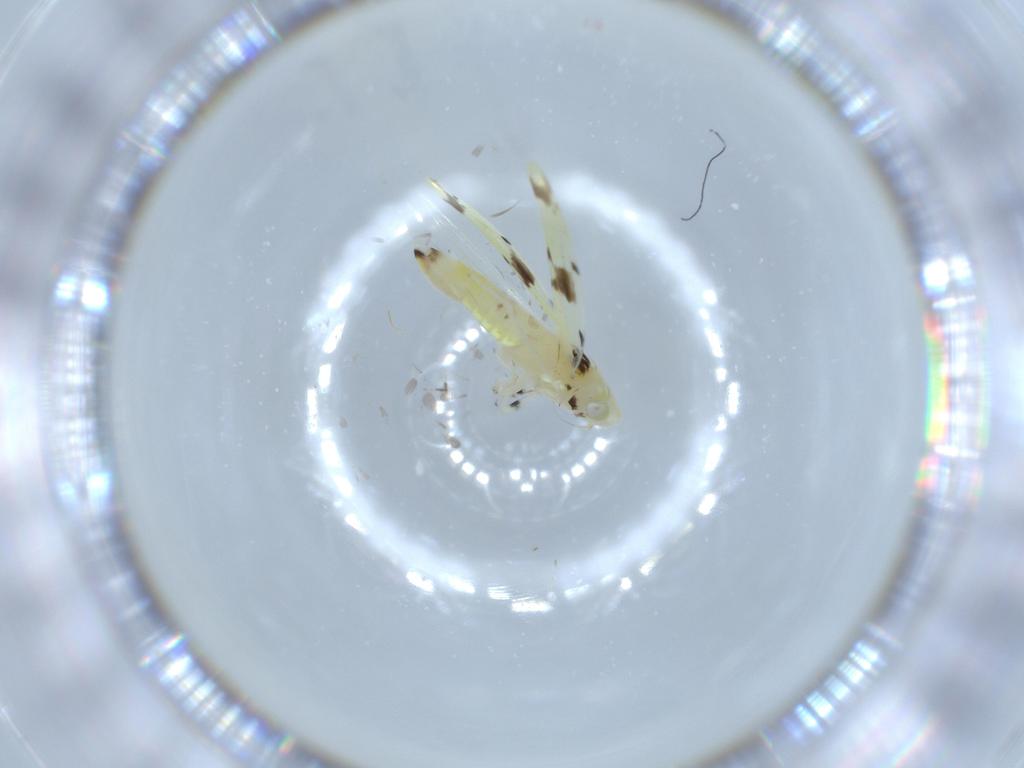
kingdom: Animalia
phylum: Arthropoda
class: Insecta
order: Hemiptera
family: Cicadellidae
